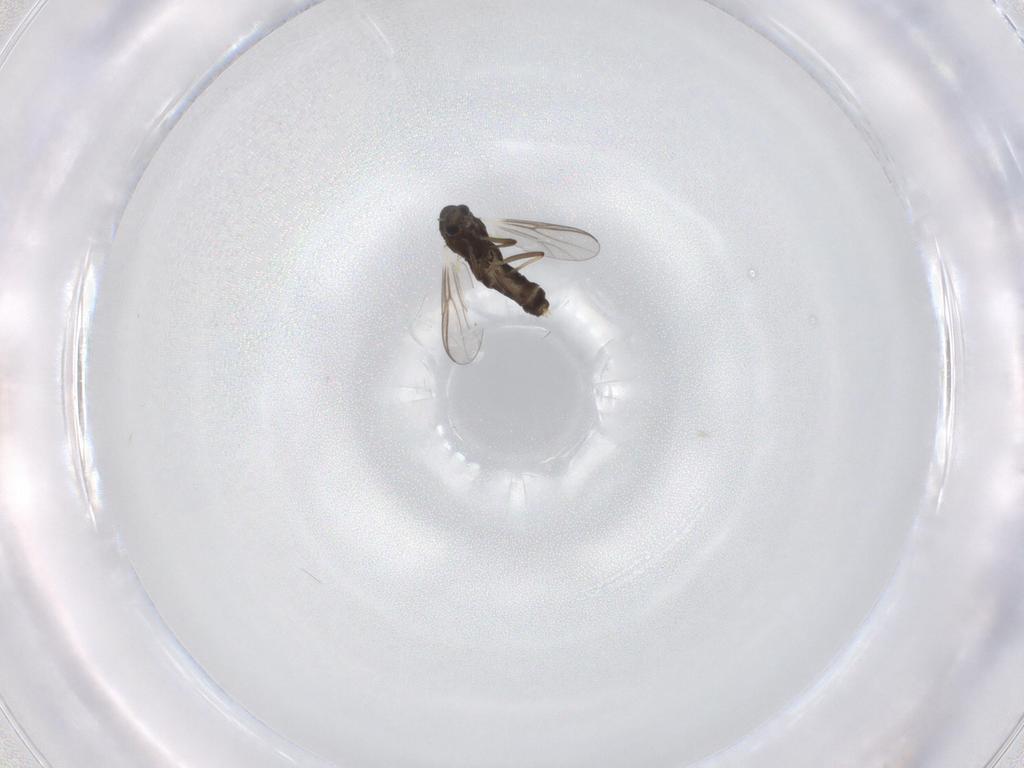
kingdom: Animalia
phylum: Arthropoda
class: Insecta
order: Diptera
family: Chironomidae
